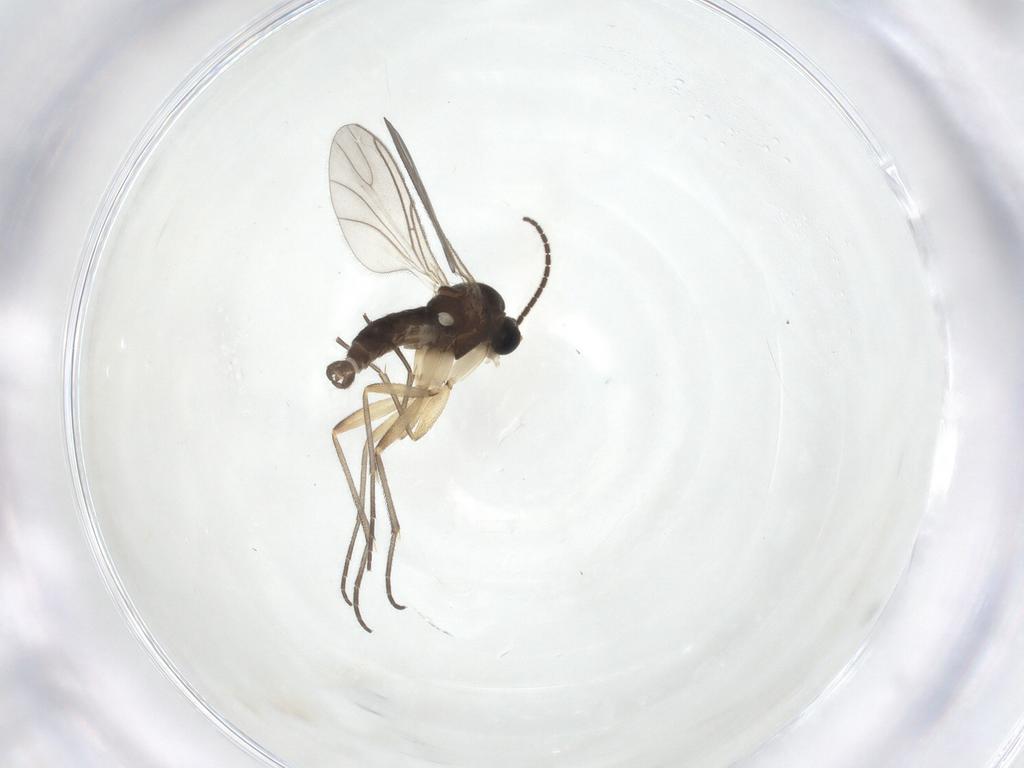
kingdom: Animalia
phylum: Arthropoda
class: Insecta
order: Diptera
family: Sciaridae
